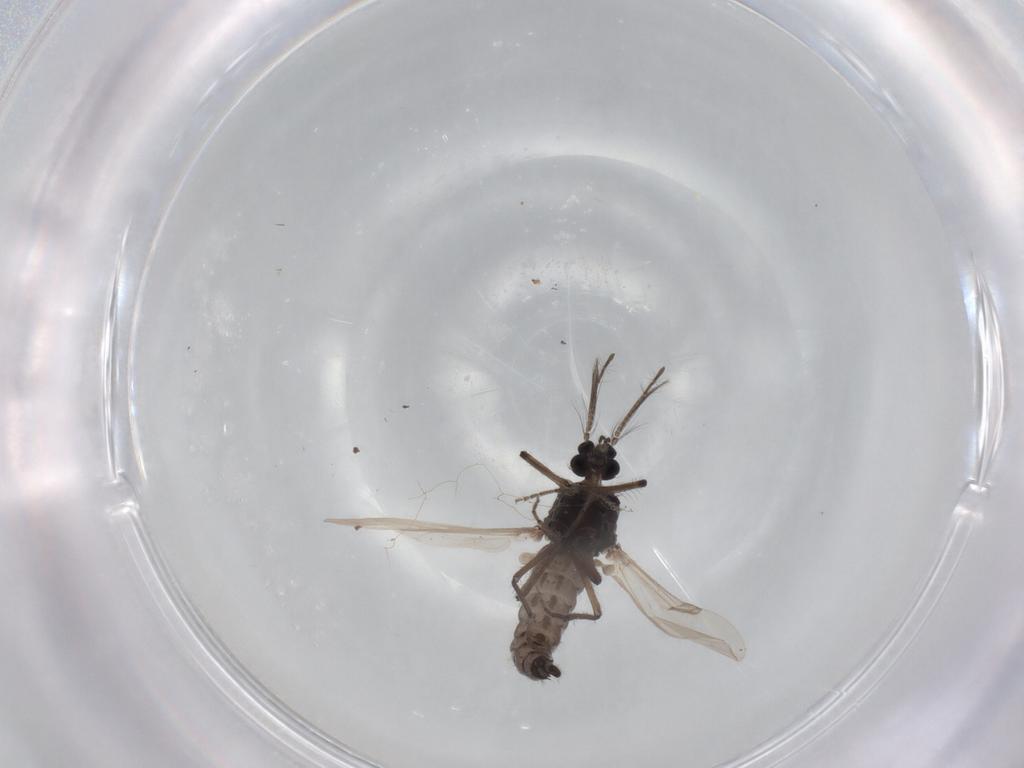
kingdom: Animalia
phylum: Arthropoda
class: Insecta
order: Diptera
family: Ceratopogonidae
